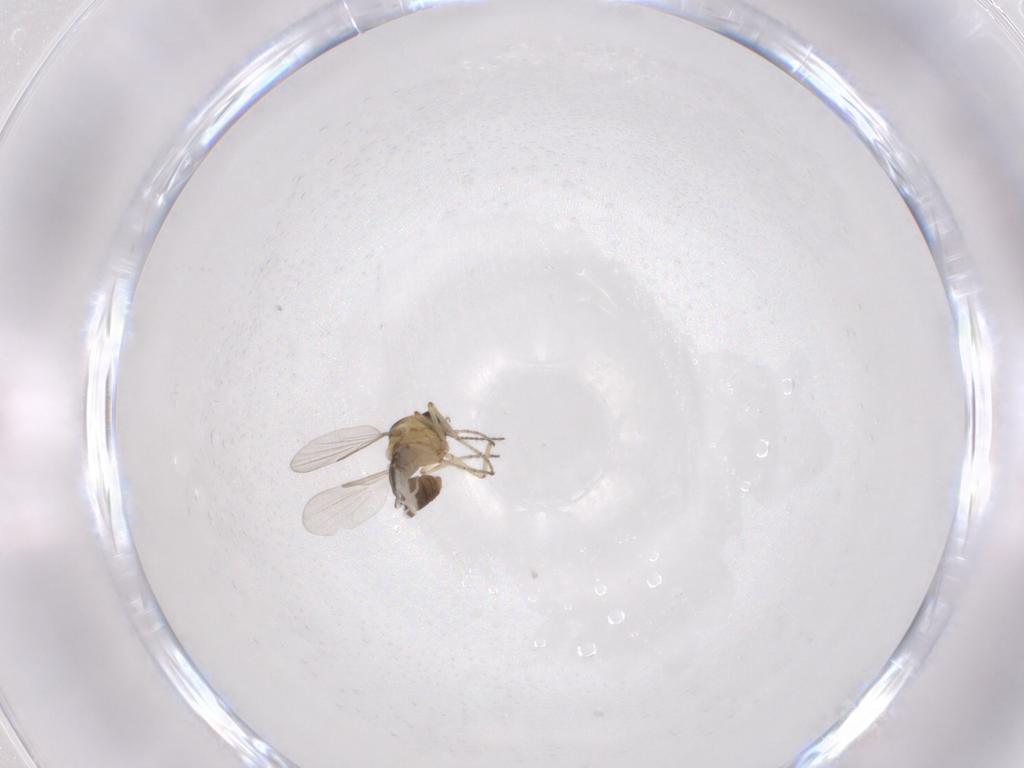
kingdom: Animalia
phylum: Arthropoda
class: Insecta
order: Diptera
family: Ceratopogonidae
